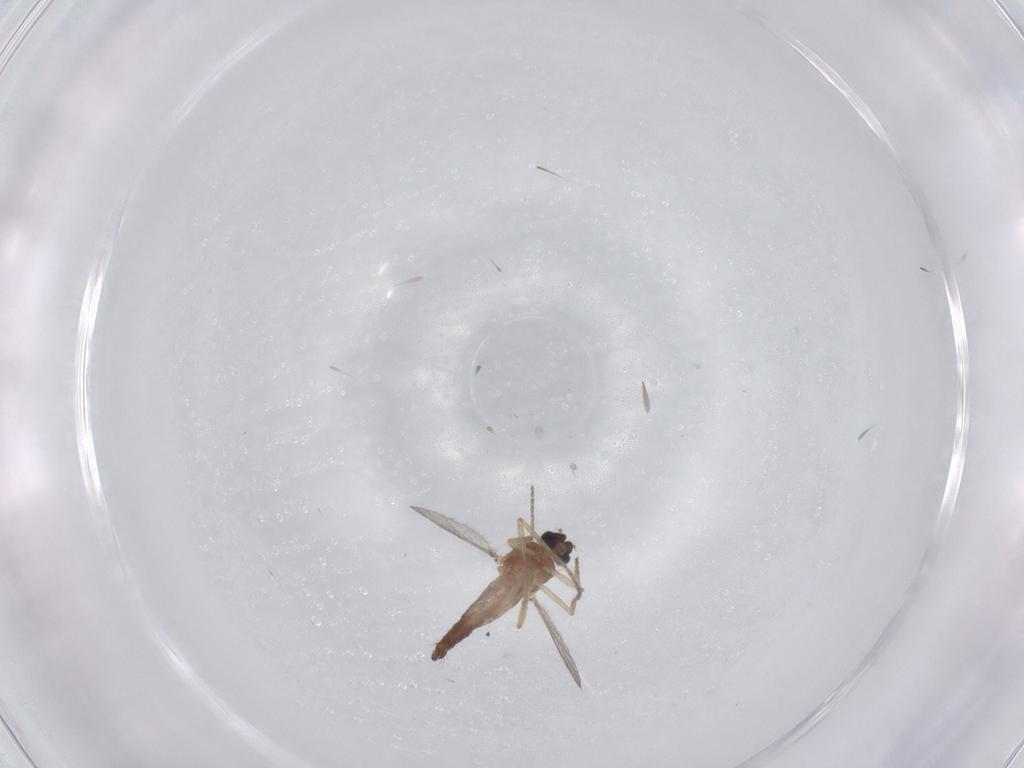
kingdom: Animalia
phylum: Arthropoda
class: Insecta
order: Diptera
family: Ceratopogonidae
